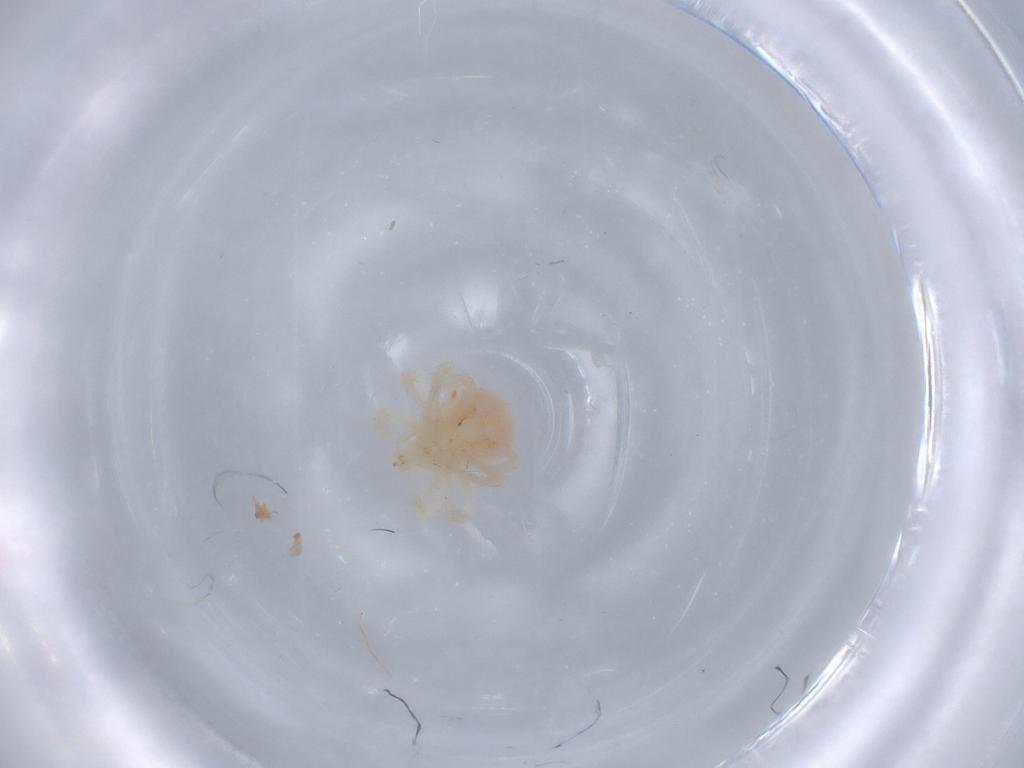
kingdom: Animalia
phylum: Arthropoda
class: Arachnida
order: Trombidiformes
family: Anystidae
